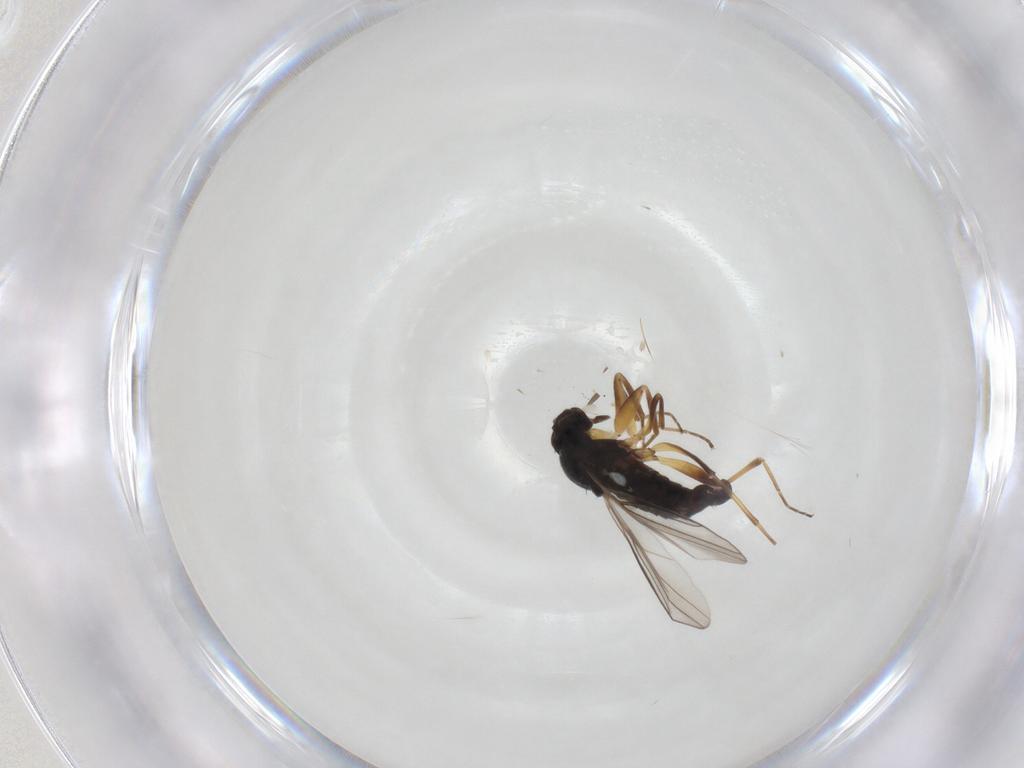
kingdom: Animalia
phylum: Arthropoda
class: Insecta
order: Diptera
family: Hybotidae
